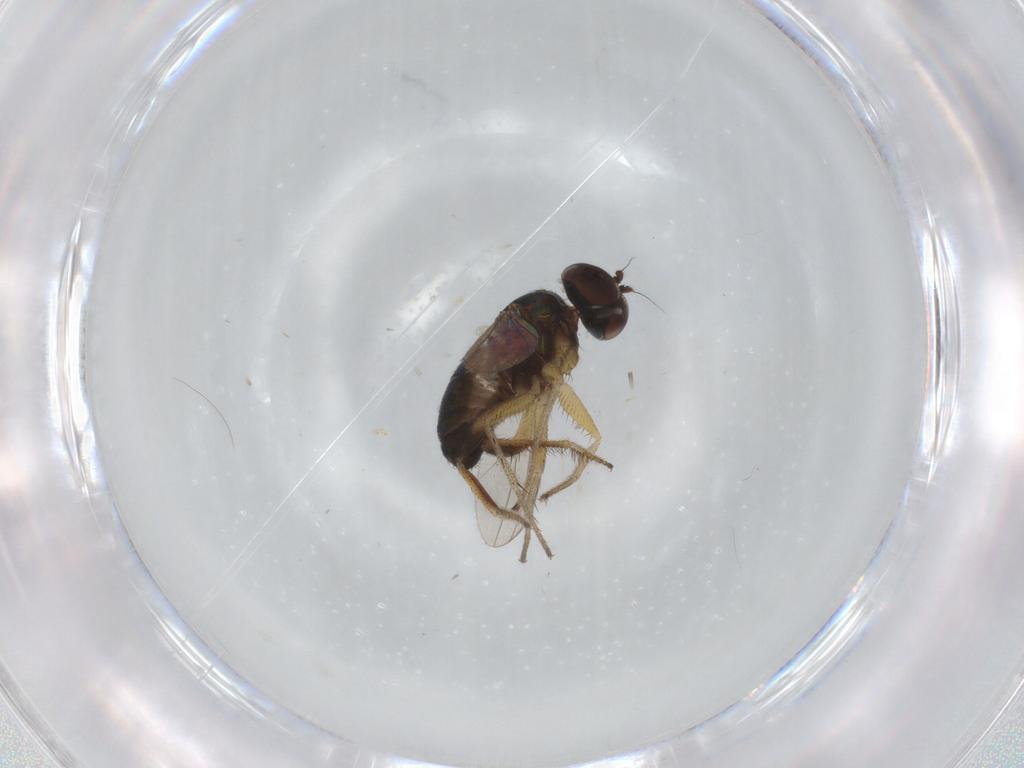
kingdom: Animalia
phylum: Arthropoda
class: Insecta
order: Diptera
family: Dolichopodidae
